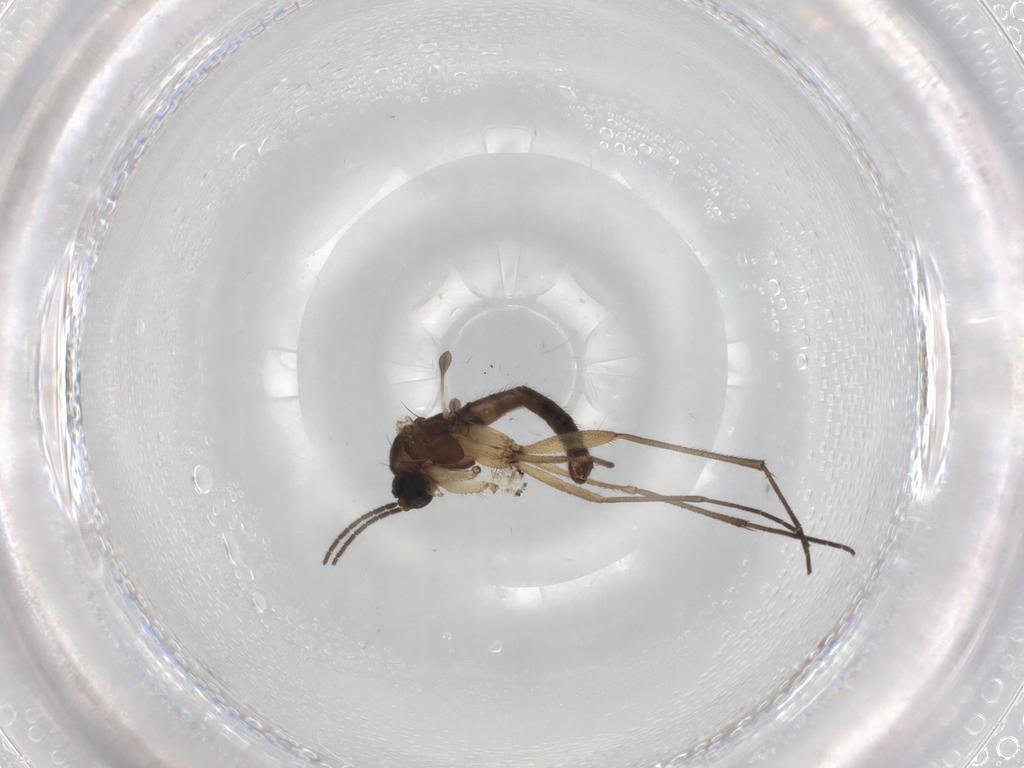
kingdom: Animalia
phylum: Arthropoda
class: Insecta
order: Diptera
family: Sciaridae
